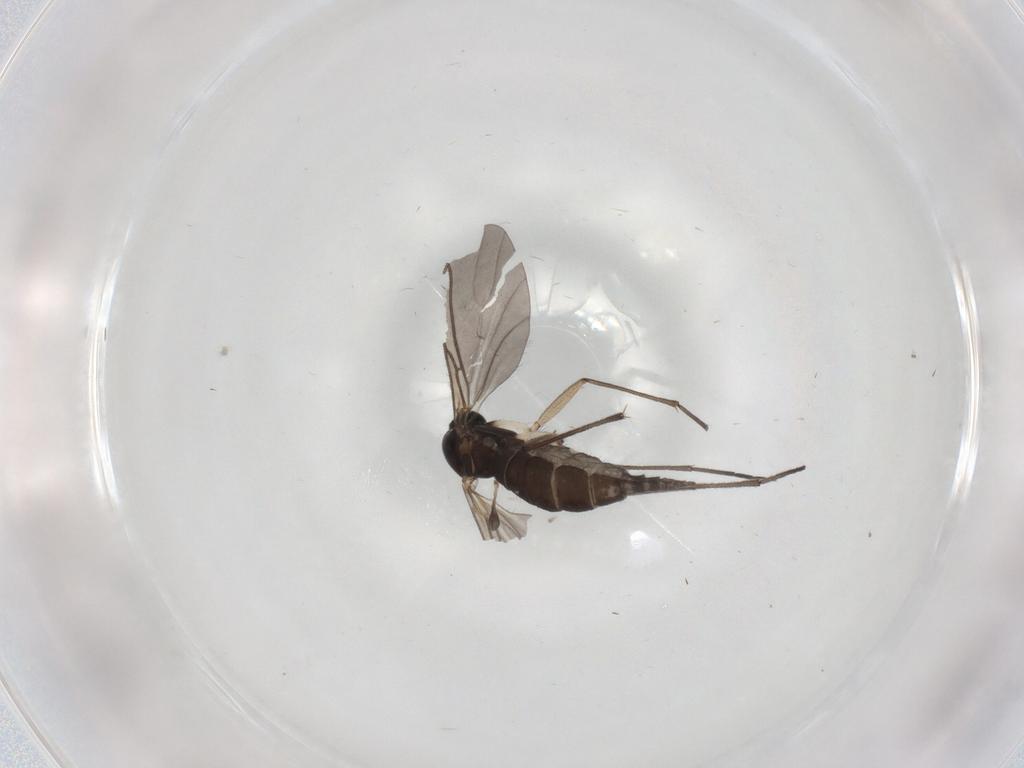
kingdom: Animalia
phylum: Arthropoda
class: Insecta
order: Diptera
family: Sciaridae
